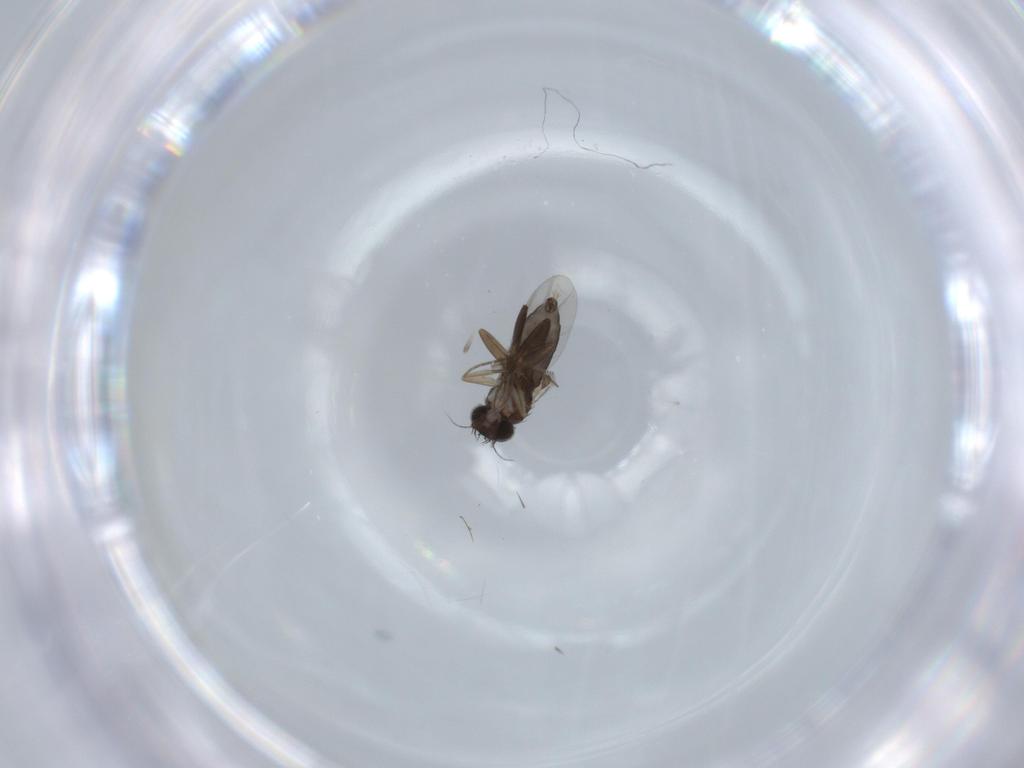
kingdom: Animalia
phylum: Arthropoda
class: Insecta
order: Diptera
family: Phoridae
